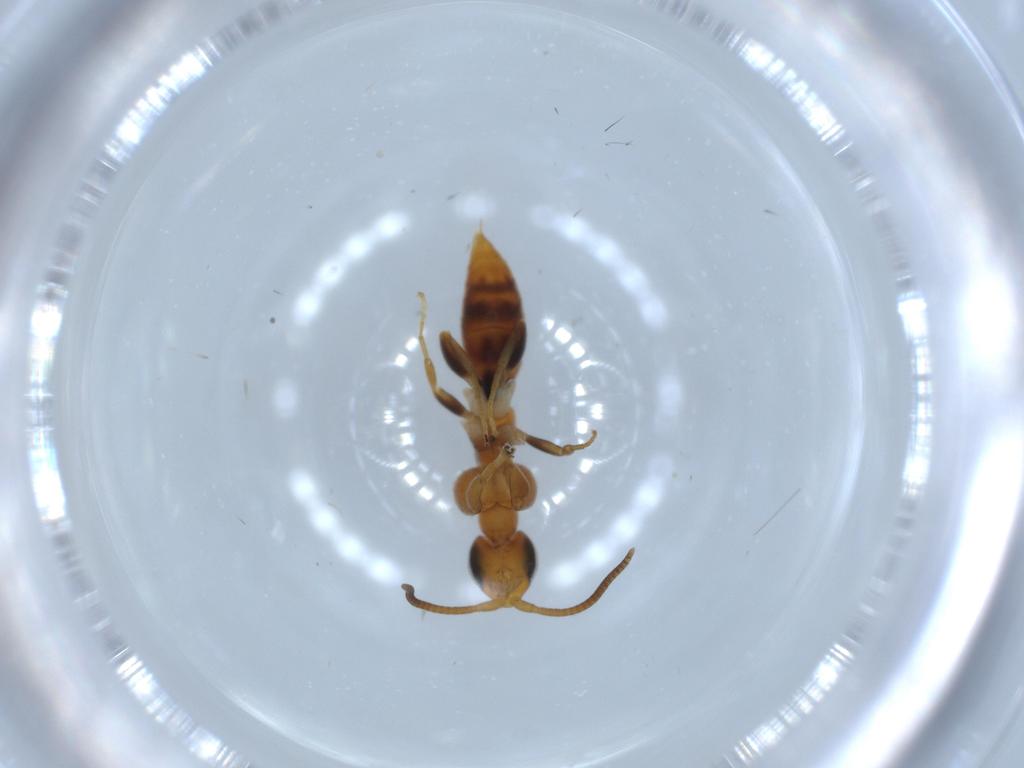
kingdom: Animalia
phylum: Arthropoda
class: Insecta
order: Hymenoptera
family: Sclerogibbidae
